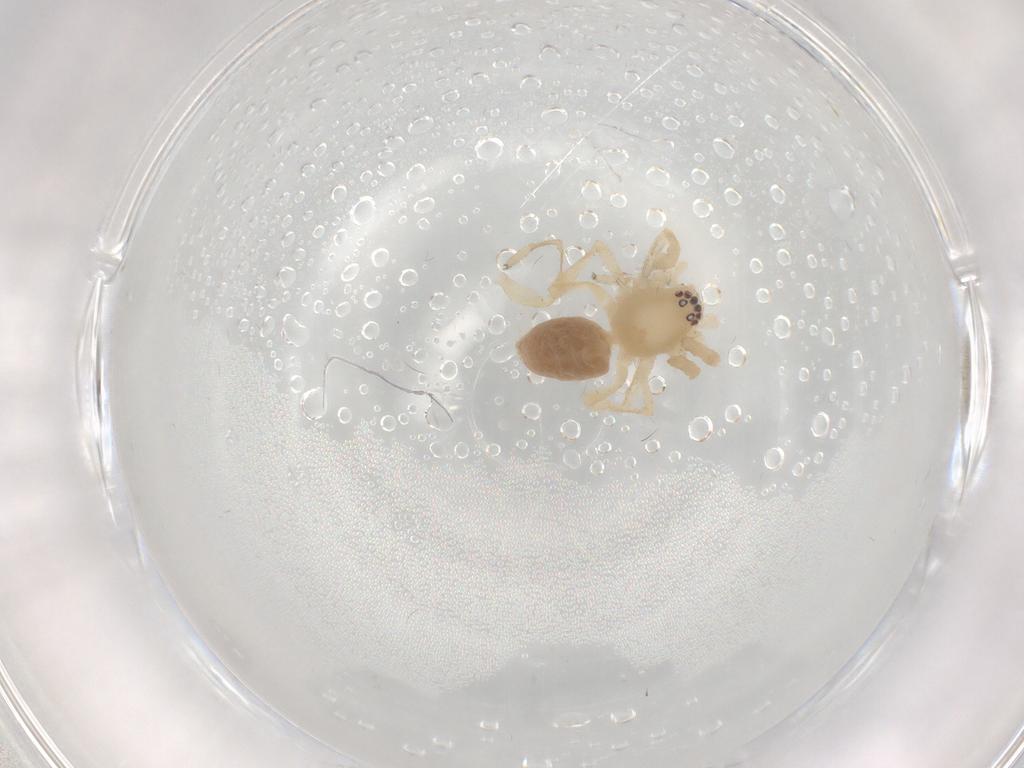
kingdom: Animalia
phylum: Arthropoda
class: Arachnida
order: Araneae
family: Clubionidae
